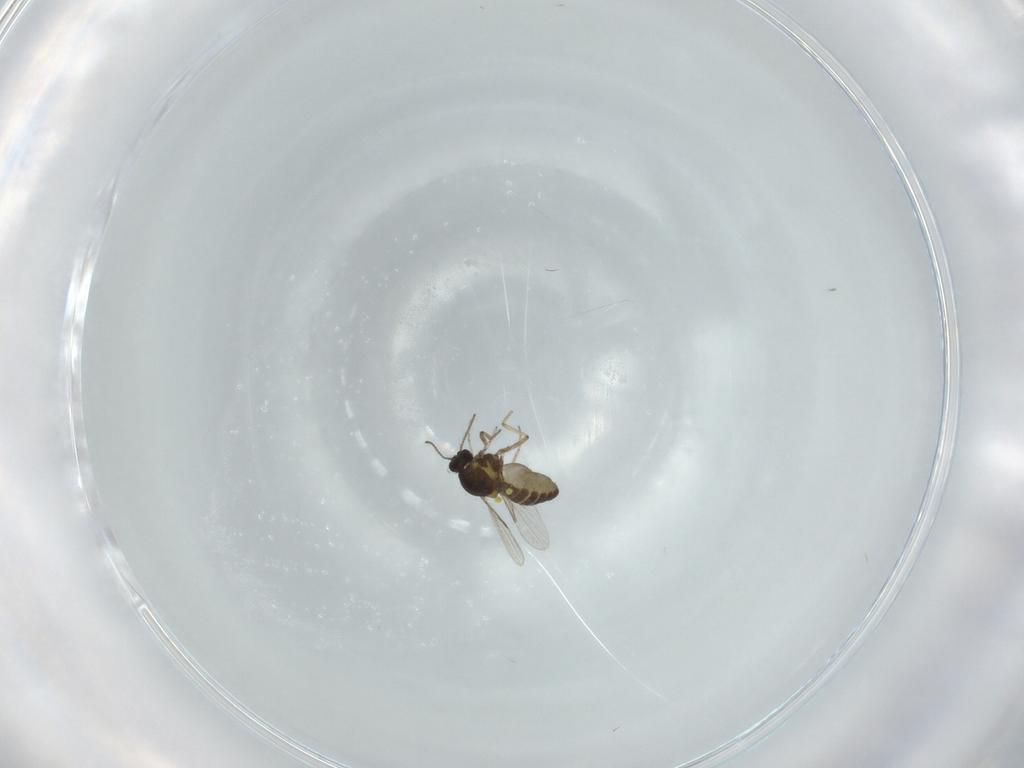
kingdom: Animalia
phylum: Arthropoda
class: Insecta
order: Diptera
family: Ceratopogonidae
